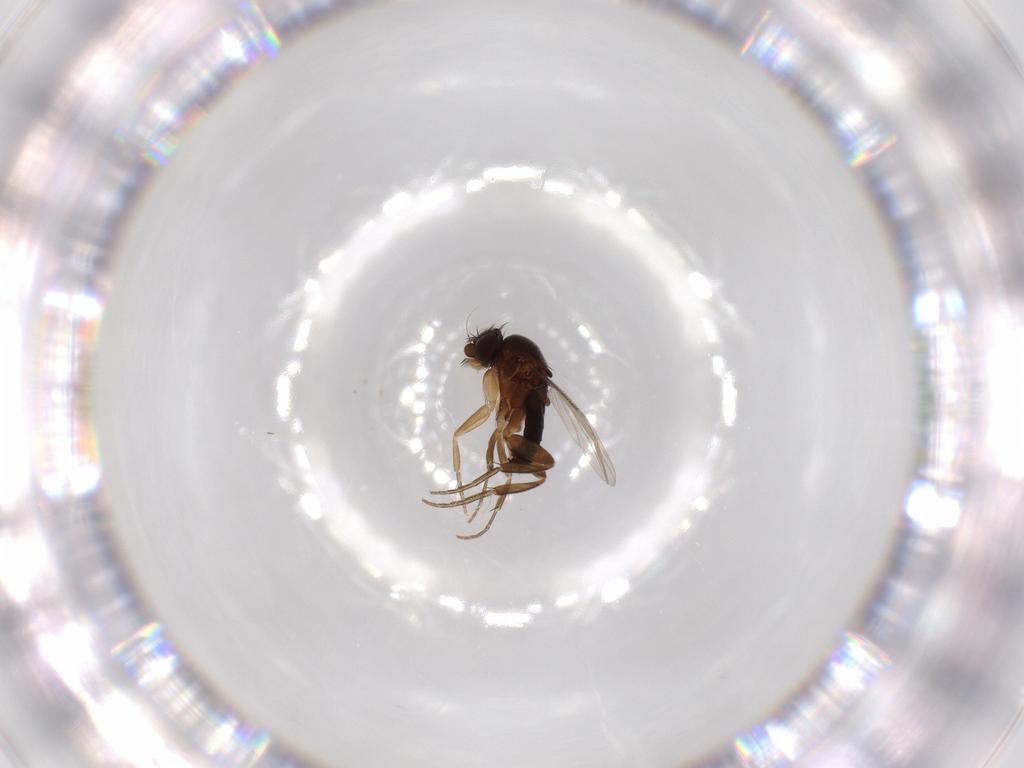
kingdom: Animalia
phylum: Arthropoda
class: Insecta
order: Diptera
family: Phoridae
